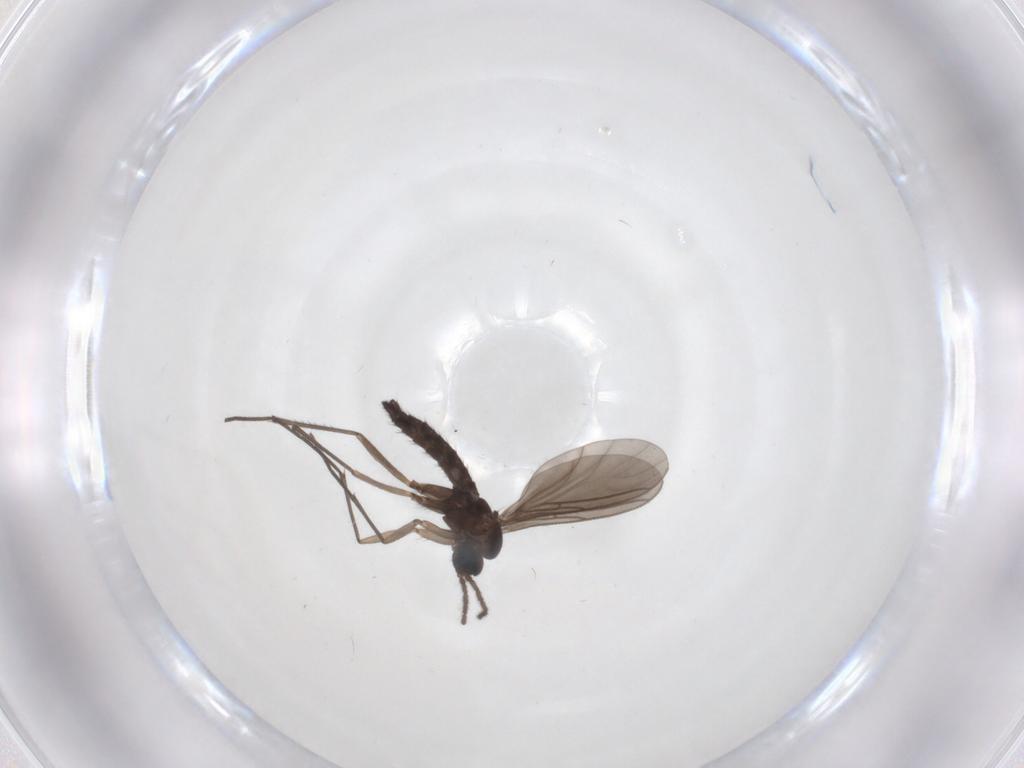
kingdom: Animalia
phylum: Arthropoda
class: Insecta
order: Diptera
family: Sciaridae
